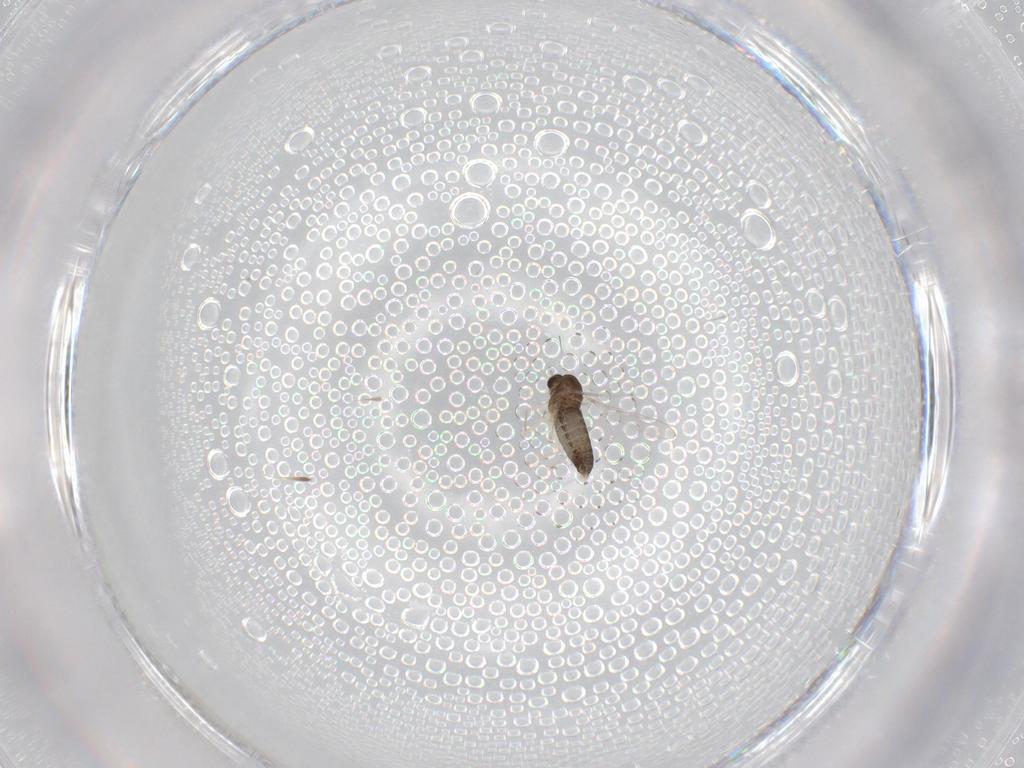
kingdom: Animalia
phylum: Arthropoda
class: Insecta
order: Diptera
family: Chironomidae
